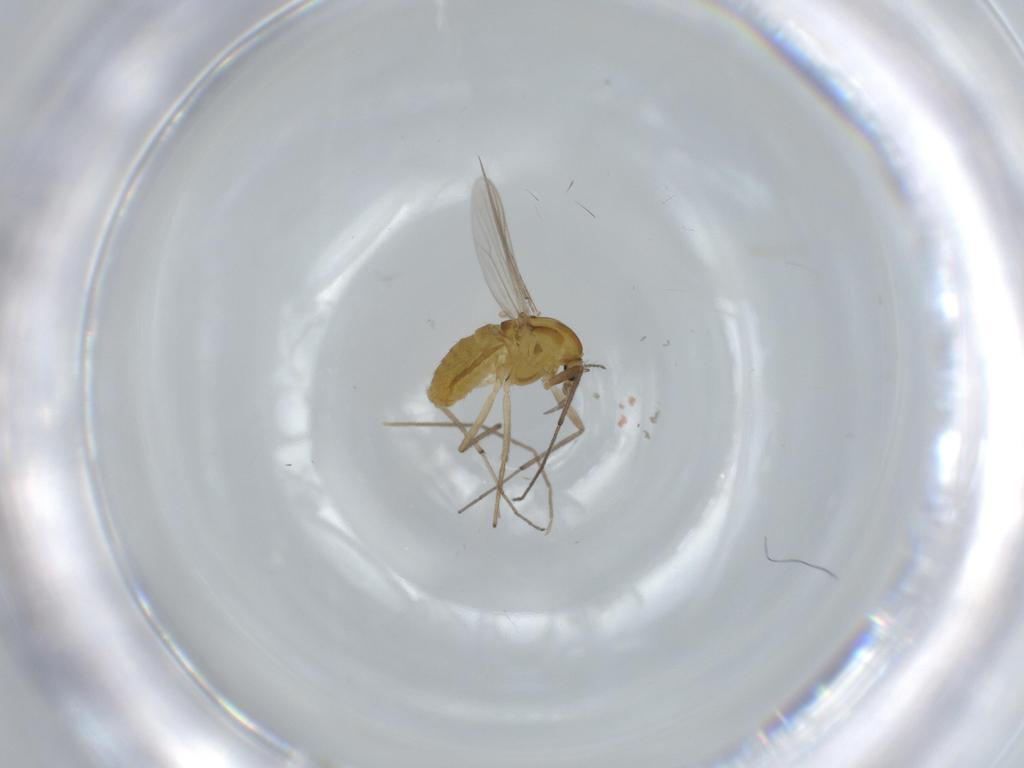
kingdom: Animalia
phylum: Arthropoda
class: Insecta
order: Diptera
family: Chironomidae
